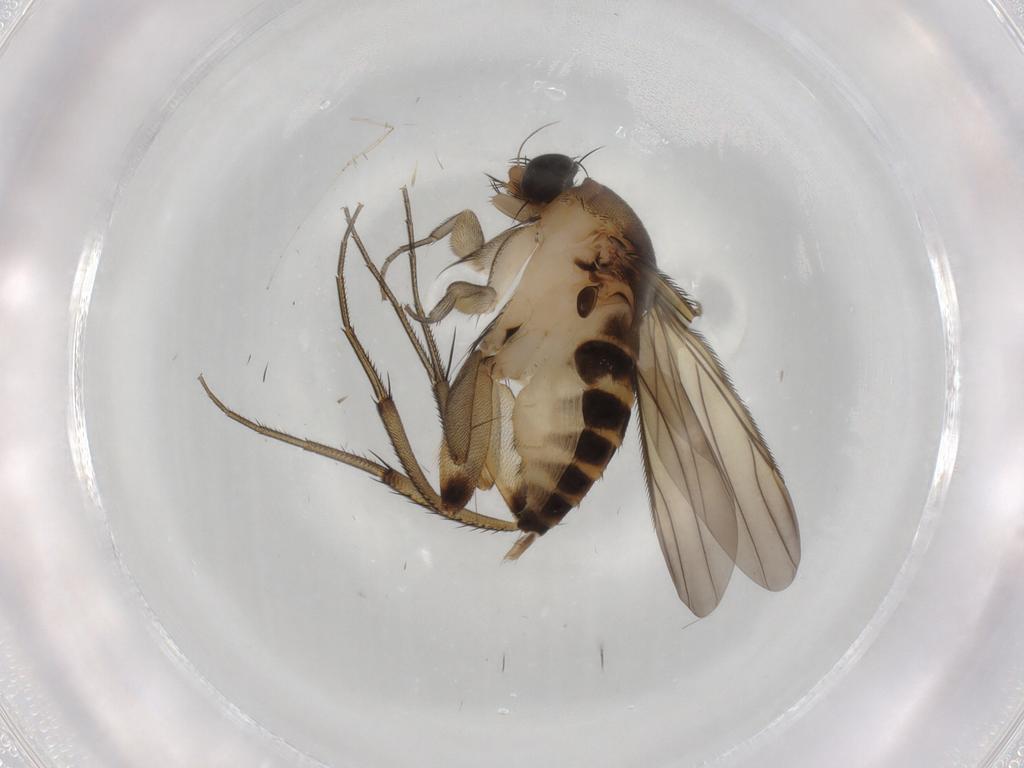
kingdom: Animalia
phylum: Arthropoda
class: Insecta
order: Diptera
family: Phoridae
